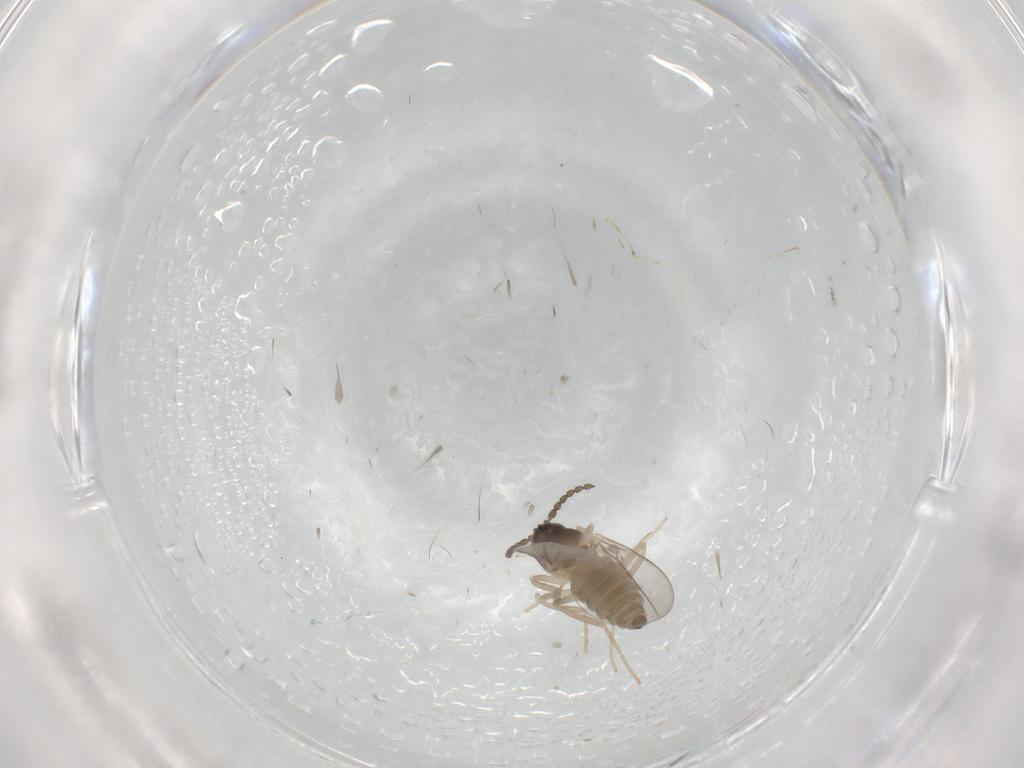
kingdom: Animalia
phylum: Arthropoda
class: Insecta
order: Diptera
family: Cecidomyiidae
